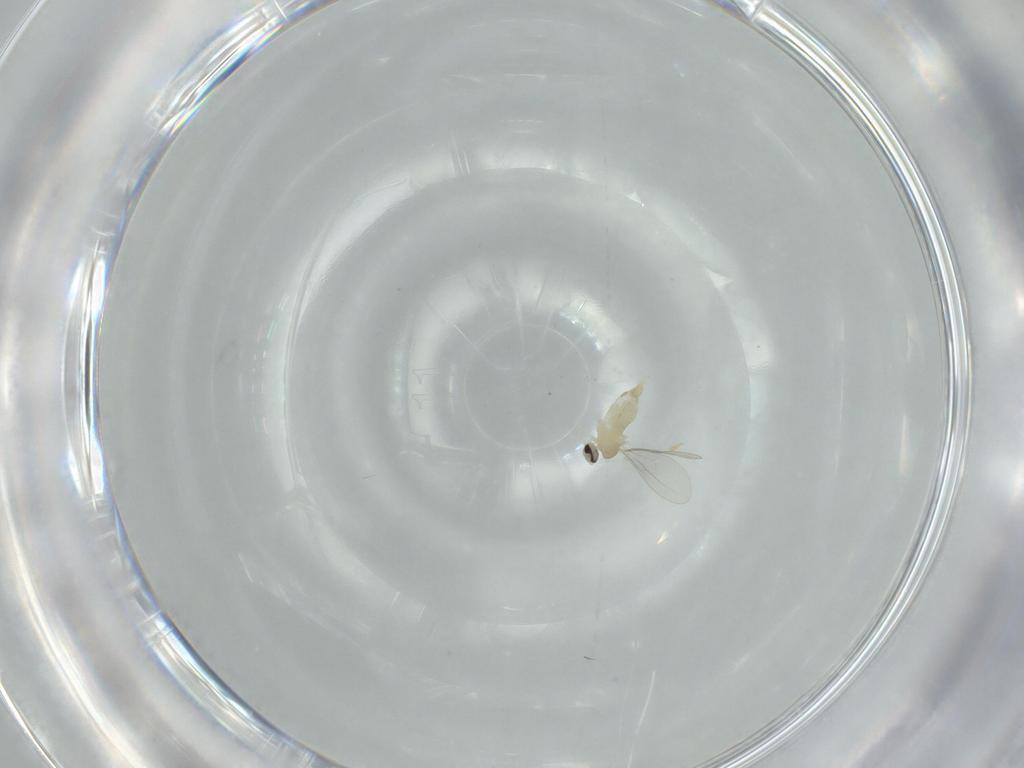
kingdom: Animalia
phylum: Arthropoda
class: Insecta
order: Diptera
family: Cecidomyiidae
